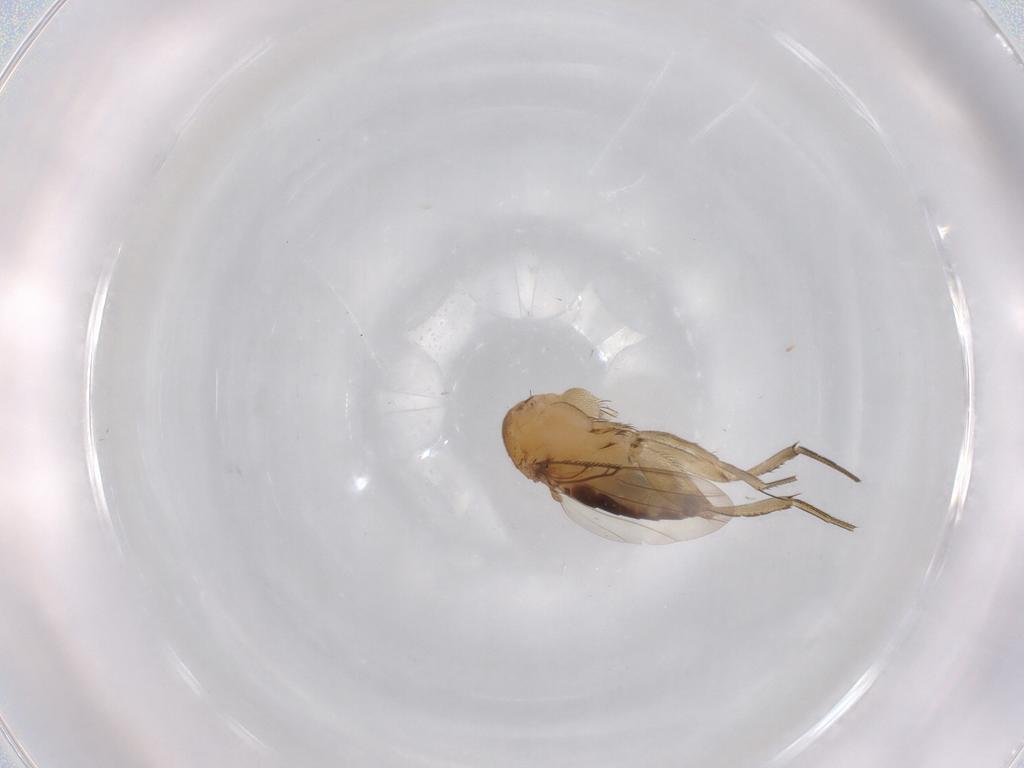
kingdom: Animalia
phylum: Arthropoda
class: Insecta
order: Diptera
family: Phoridae
